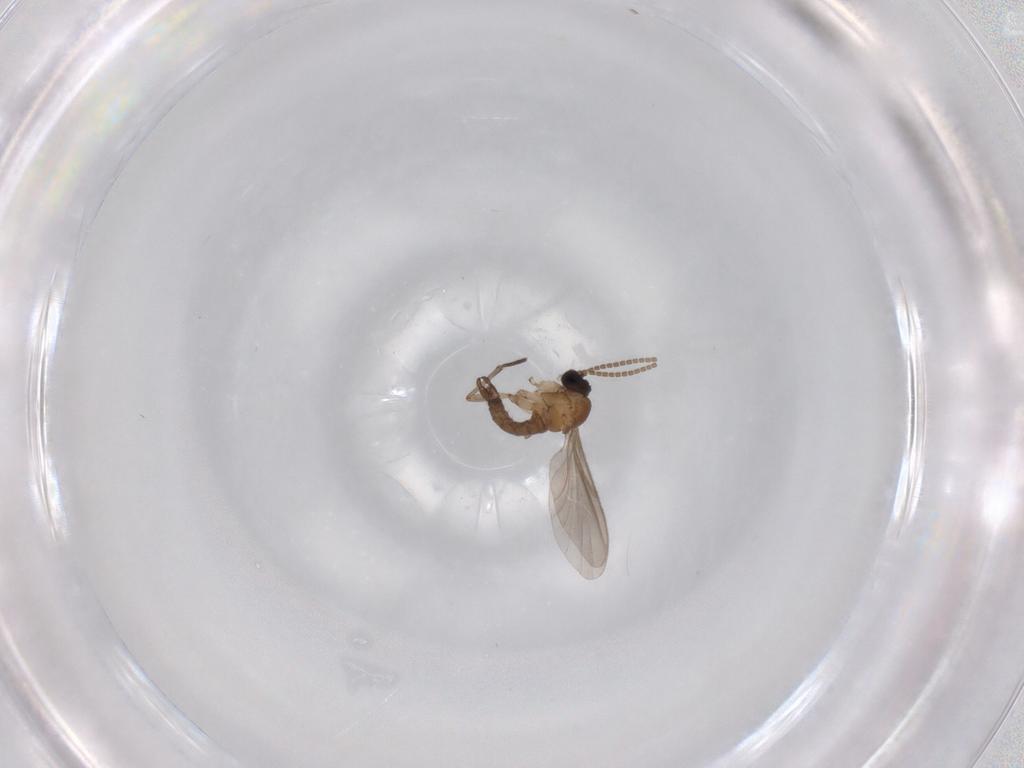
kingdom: Animalia
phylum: Arthropoda
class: Insecta
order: Diptera
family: Sciaridae
